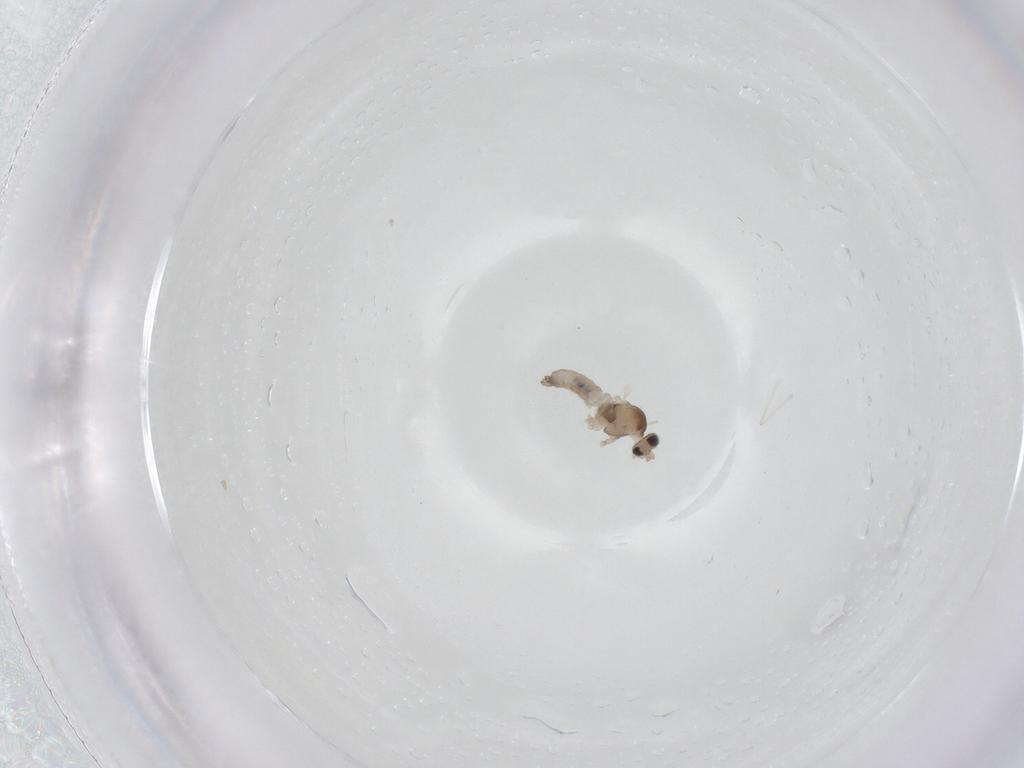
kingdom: Animalia
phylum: Arthropoda
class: Insecta
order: Diptera
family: Cecidomyiidae
